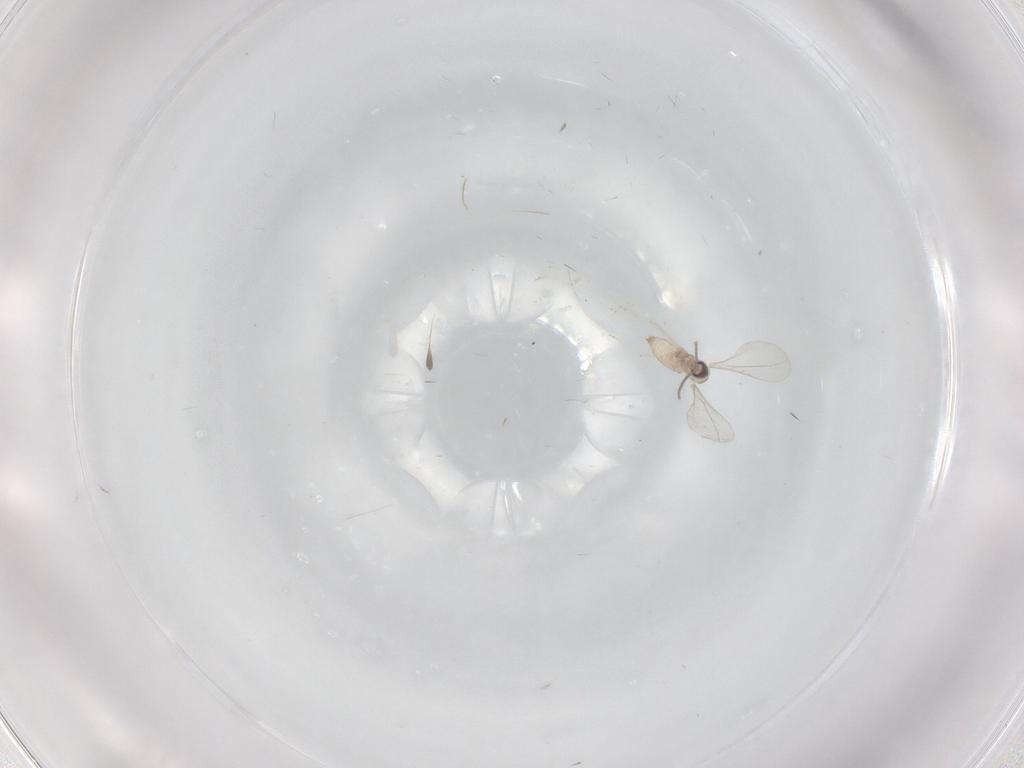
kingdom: Animalia
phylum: Arthropoda
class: Insecta
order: Diptera
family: Cecidomyiidae
